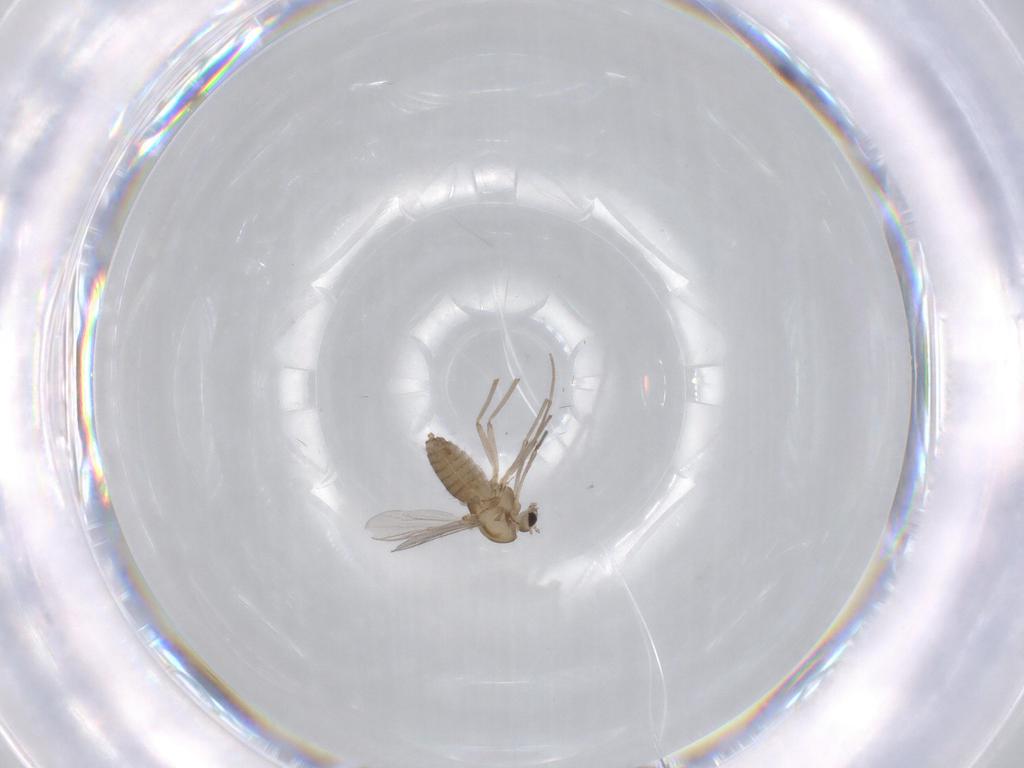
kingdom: Animalia
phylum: Arthropoda
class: Insecta
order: Diptera
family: Chironomidae
